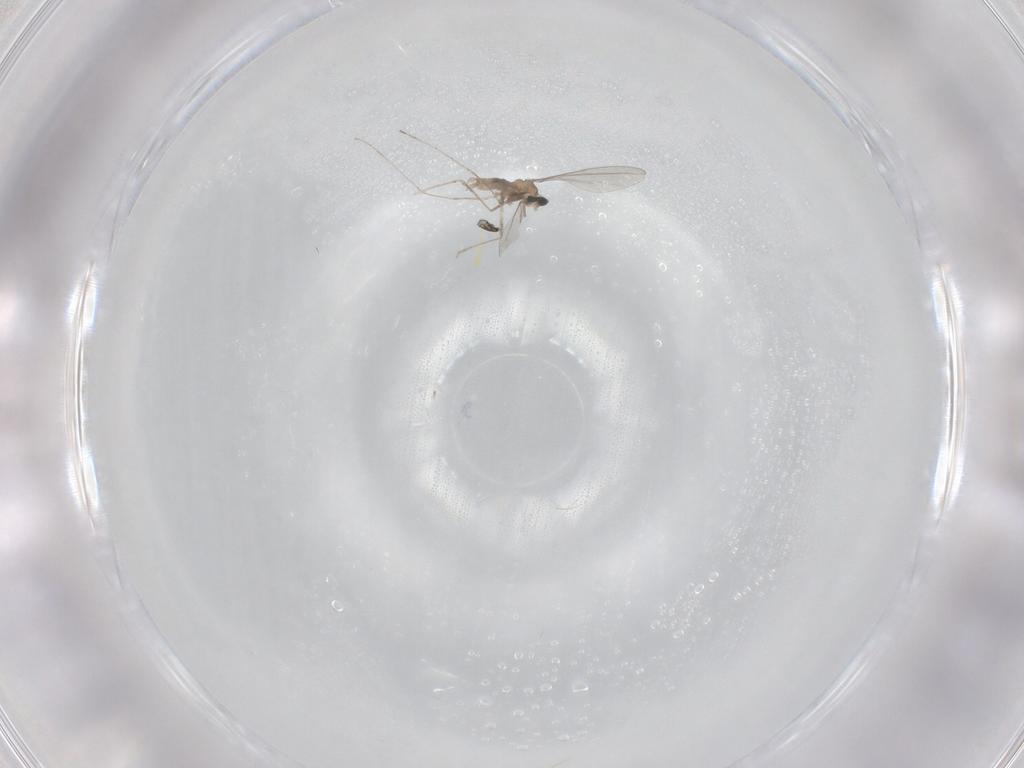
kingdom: Animalia
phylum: Arthropoda
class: Insecta
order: Diptera
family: Cecidomyiidae
